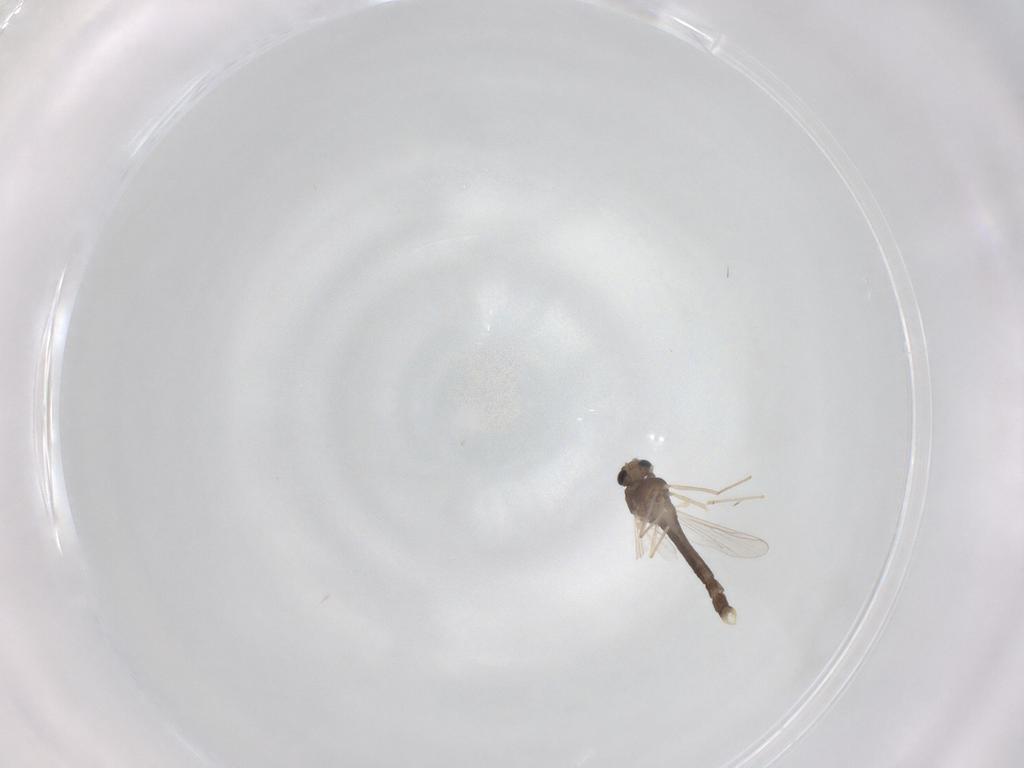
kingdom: Animalia
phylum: Arthropoda
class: Insecta
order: Diptera
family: Chironomidae
